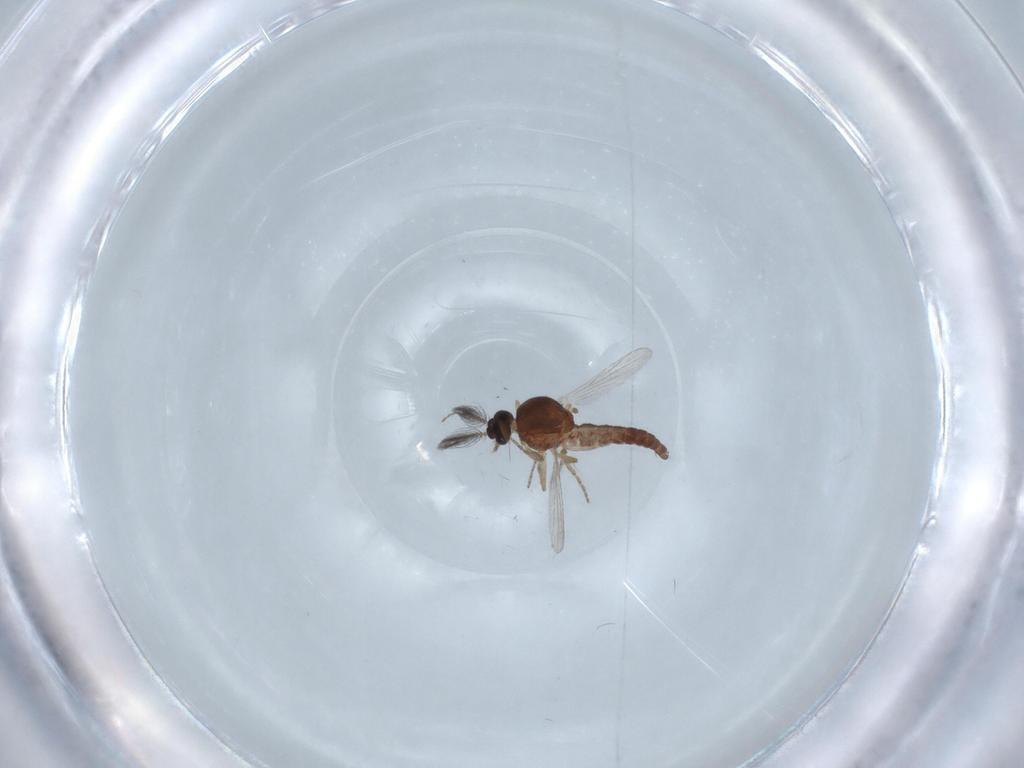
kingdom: Animalia
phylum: Arthropoda
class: Insecta
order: Diptera
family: Ceratopogonidae
